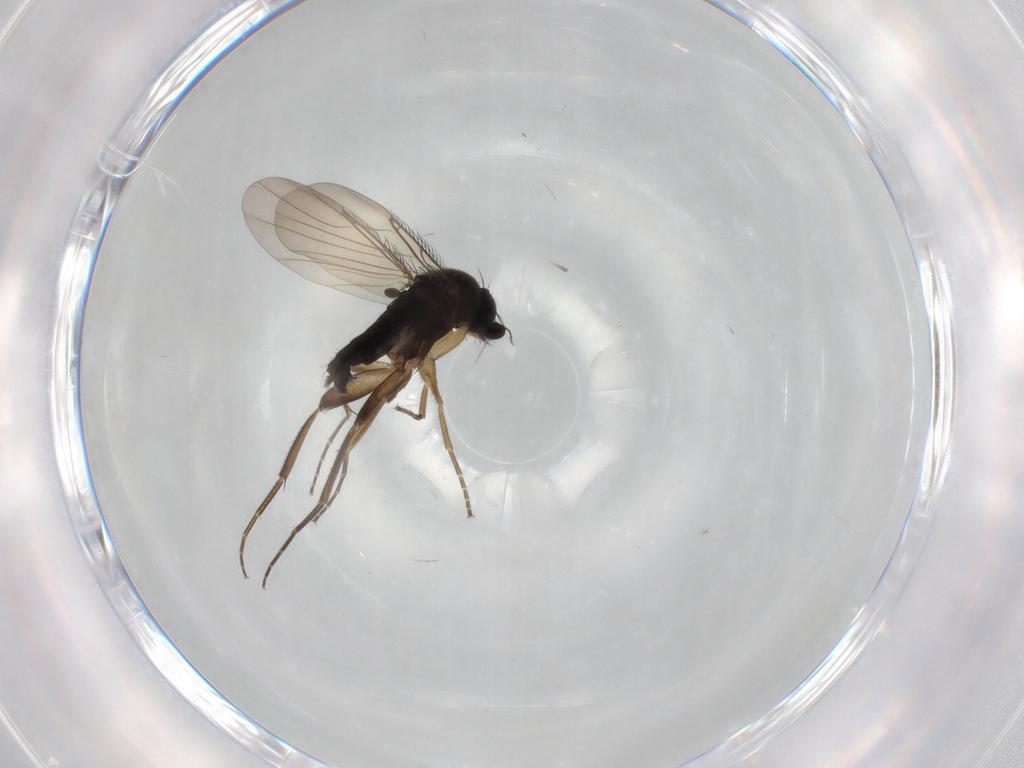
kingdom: Animalia
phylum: Arthropoda
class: Insecta
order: Diptera
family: Phoridae
